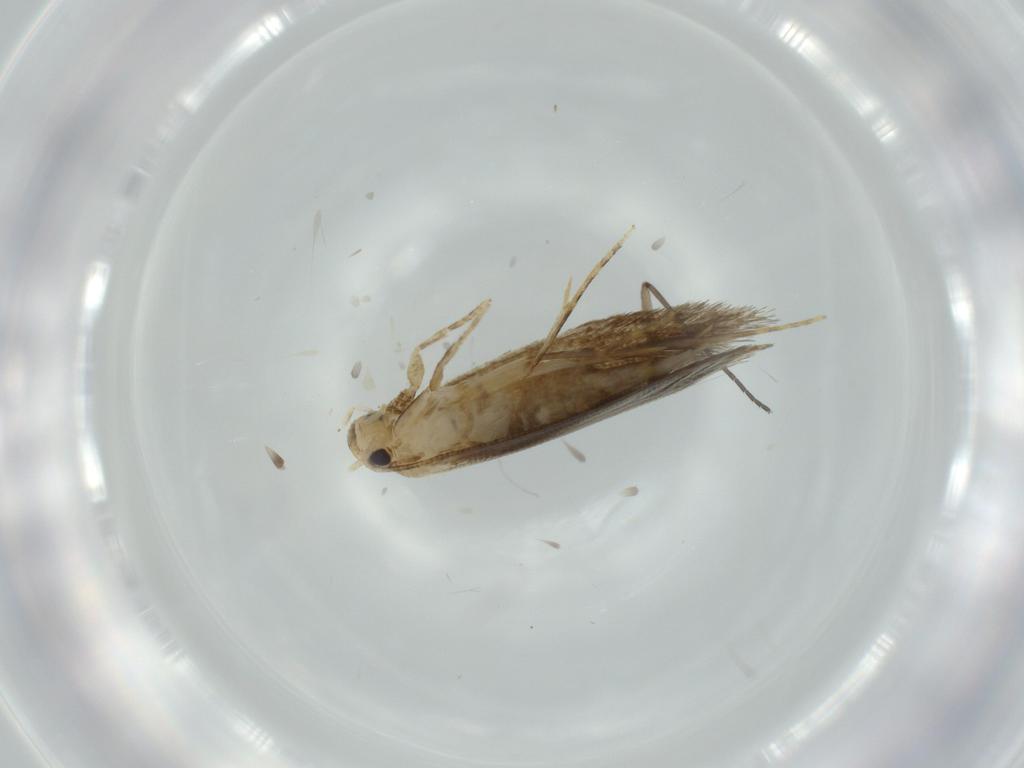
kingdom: Animalia
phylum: Arthropoda
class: Insecta
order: Lepidoptera
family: Tineidae
